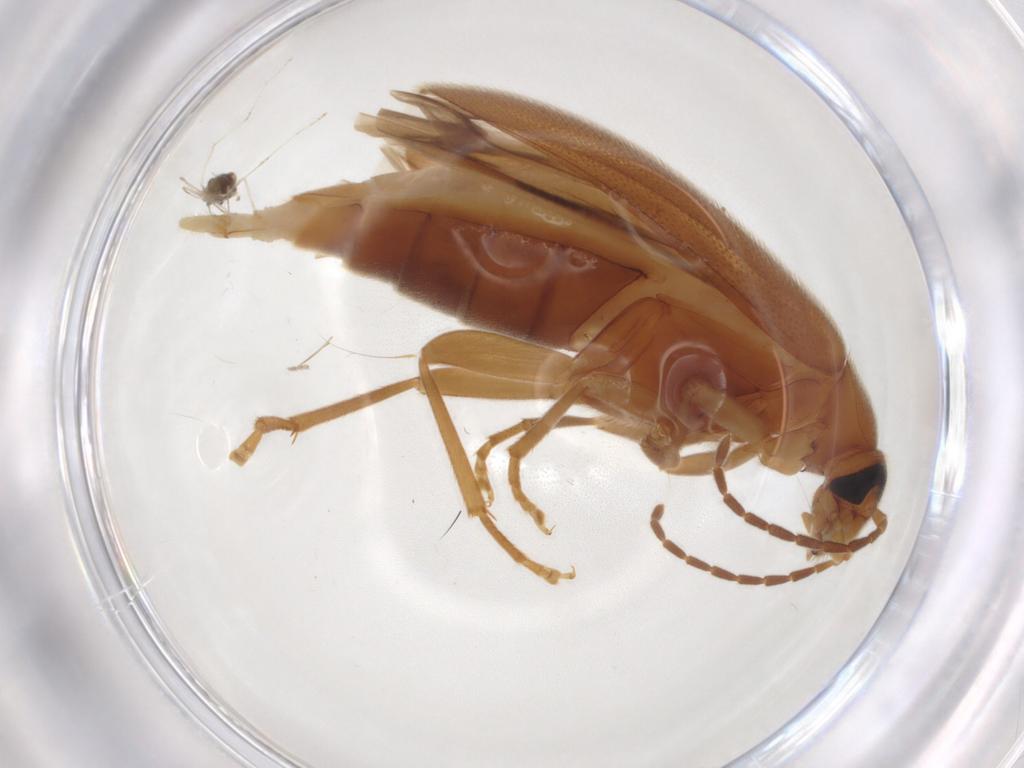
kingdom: Animalia
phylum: Arthropoda
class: Insecta
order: Coleoptera
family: Scraptiidae
